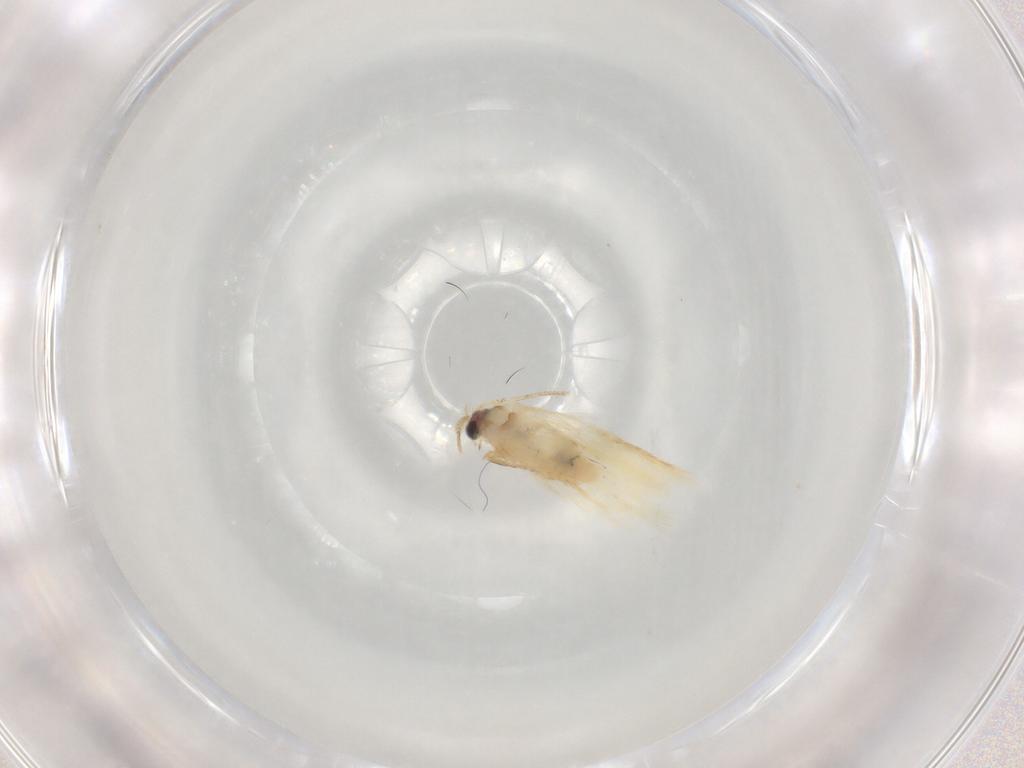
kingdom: Animalia
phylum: Arthropoda
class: Insecta
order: Lepidoptera
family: Nepticulidae
